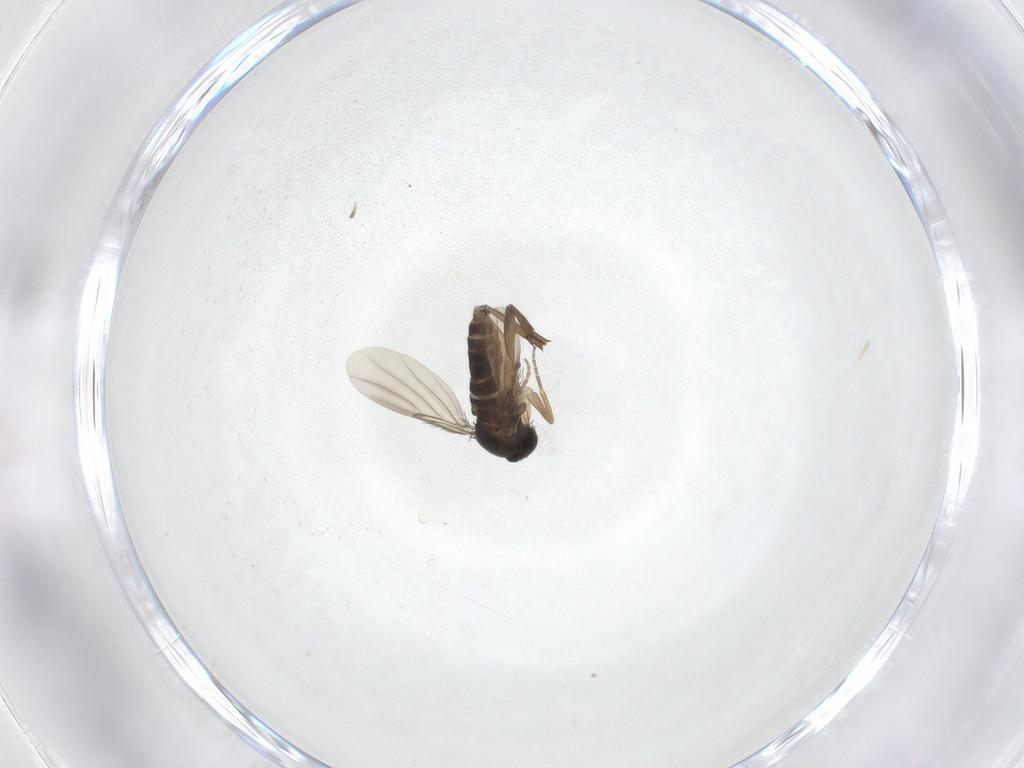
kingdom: Animalia
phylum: Arthropoda
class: Insecta
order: Diptera
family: Phoridae
